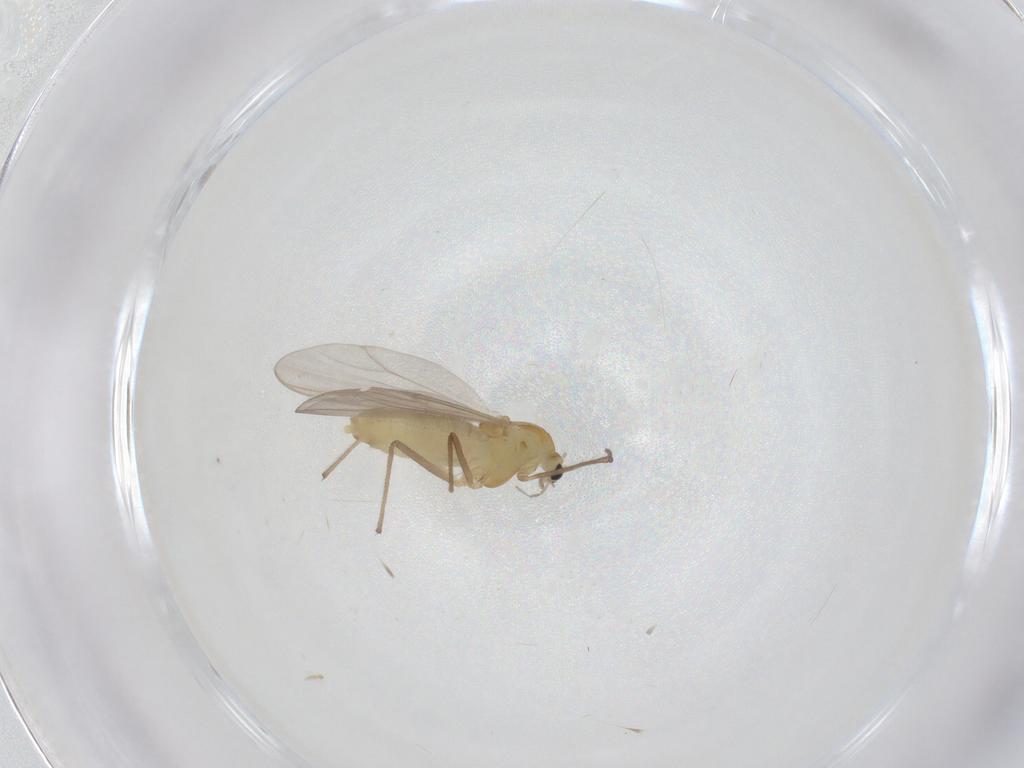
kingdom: Animalia
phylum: Arthropoda
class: Insecta
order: Diptera
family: Chironomidae
